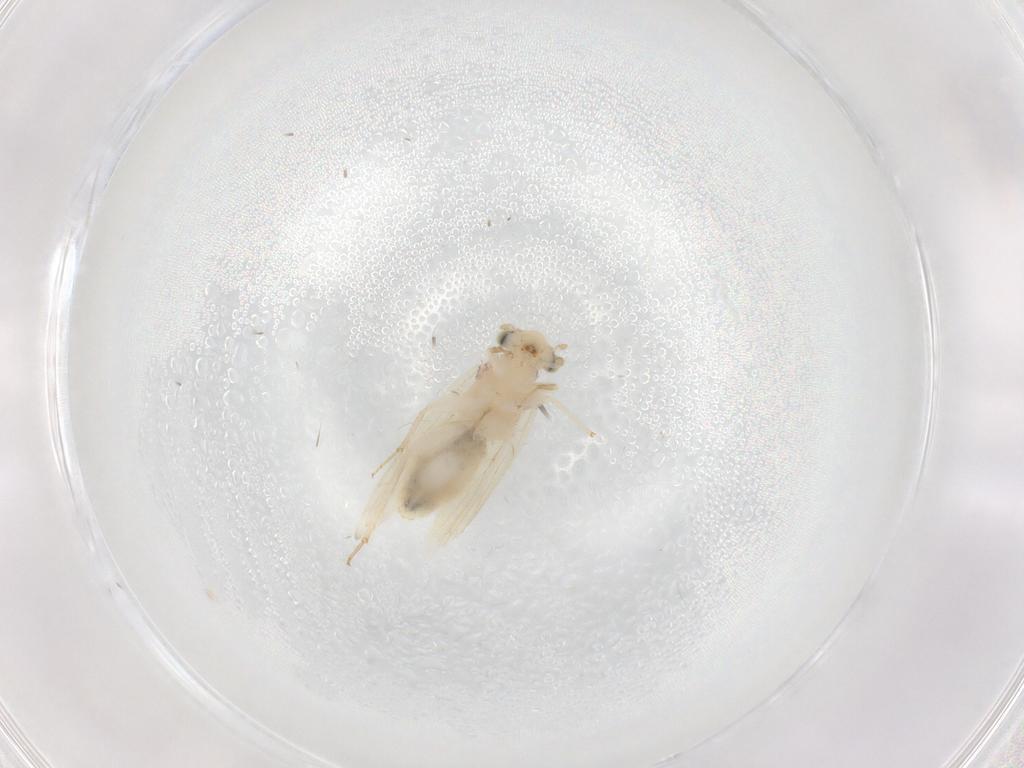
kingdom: Animalia
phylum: Arthropoda
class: Insecta
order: Psocodea
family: Lepidopsocidae
